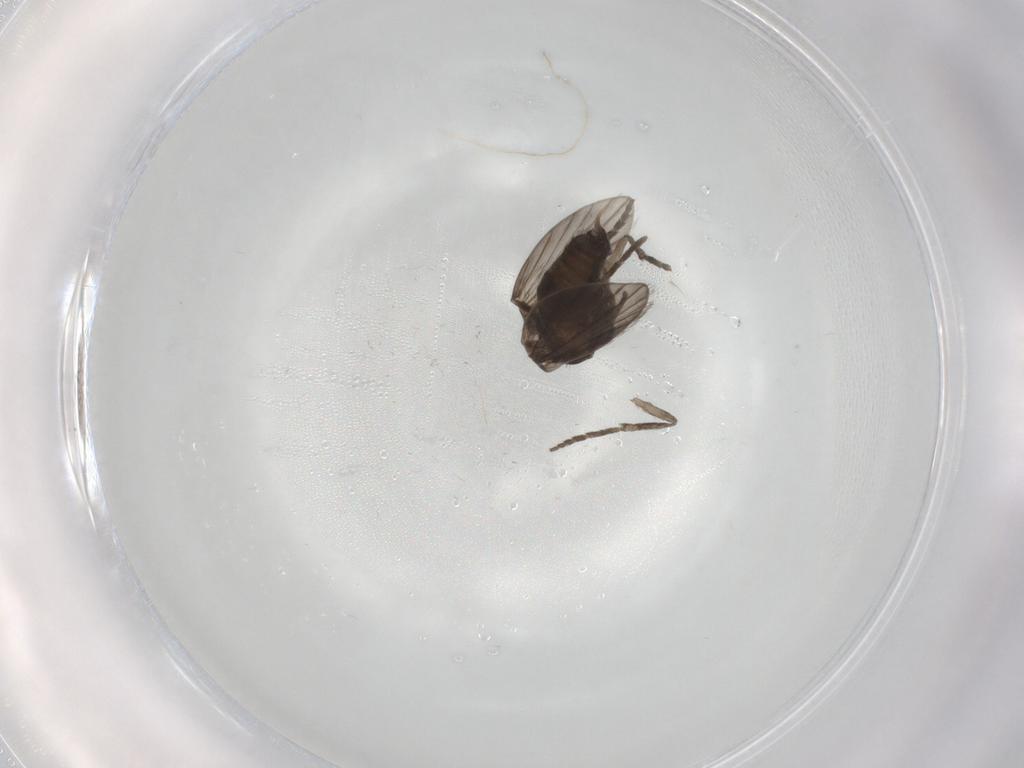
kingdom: Animalia
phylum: Arthropoda
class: Insecta
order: Diptera
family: Psychodidae
